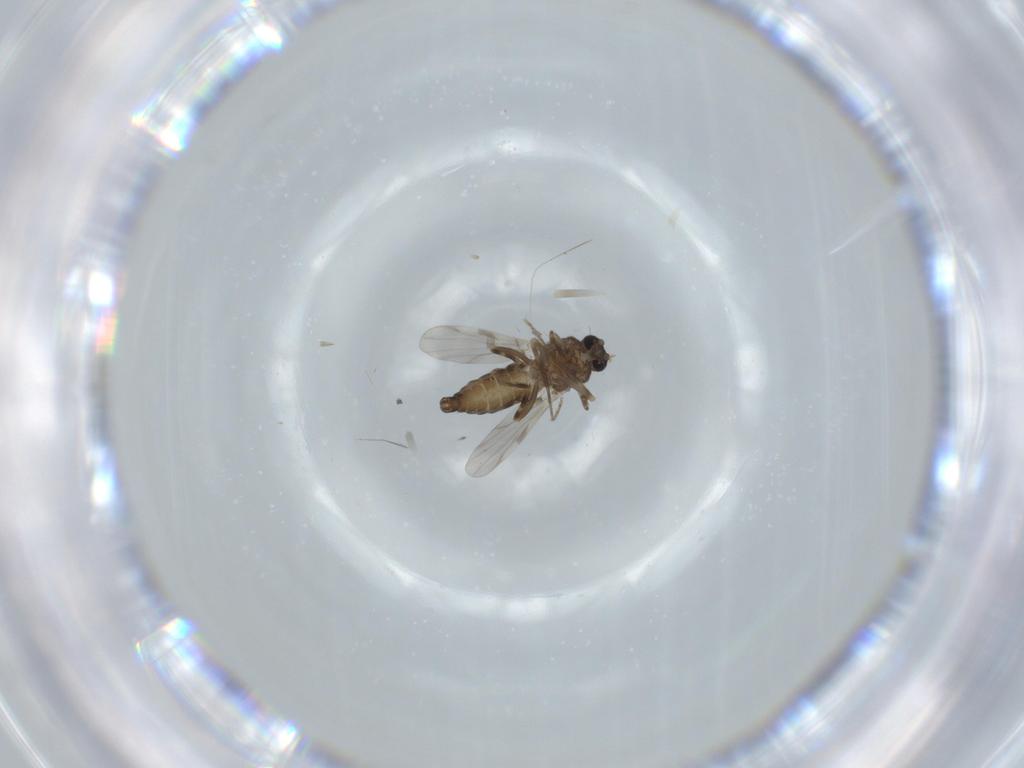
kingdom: Animalia
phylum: Arthropoda
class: Insecta
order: Diptera
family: Ceratopogonidae
